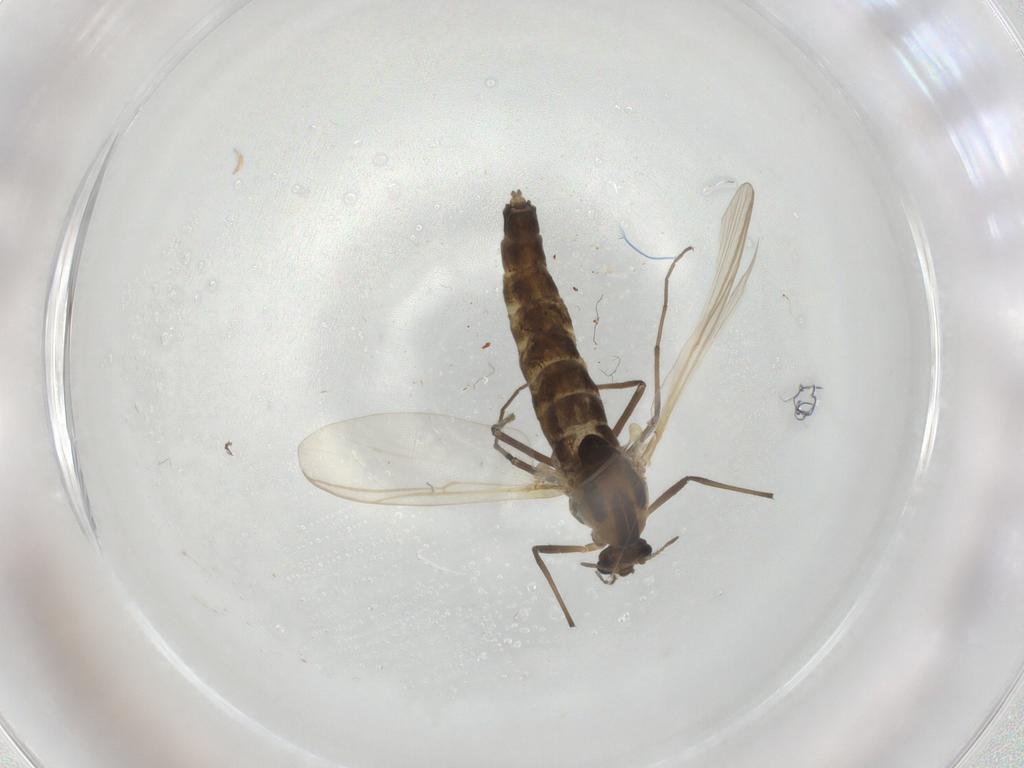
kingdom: Animalia
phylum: Arthropoda
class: Insecta
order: Diptera
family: Chironomidae
